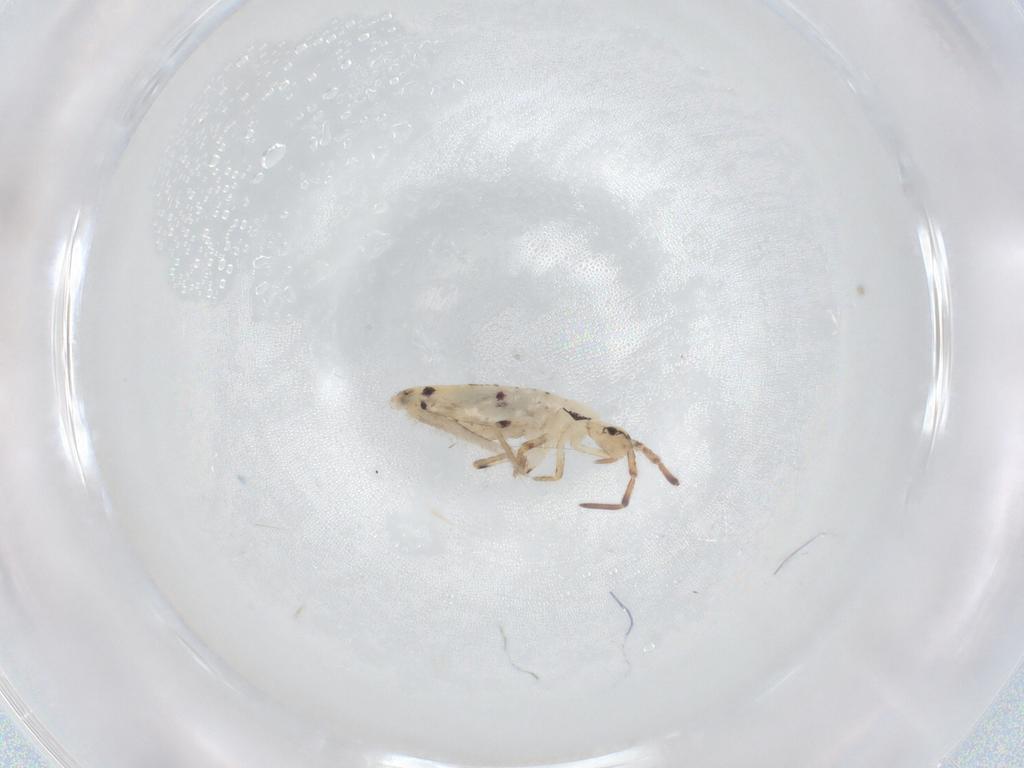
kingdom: Animalia
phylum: Arthropoda
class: Collembola
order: Entomobryomorpha
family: Entomobryidae
